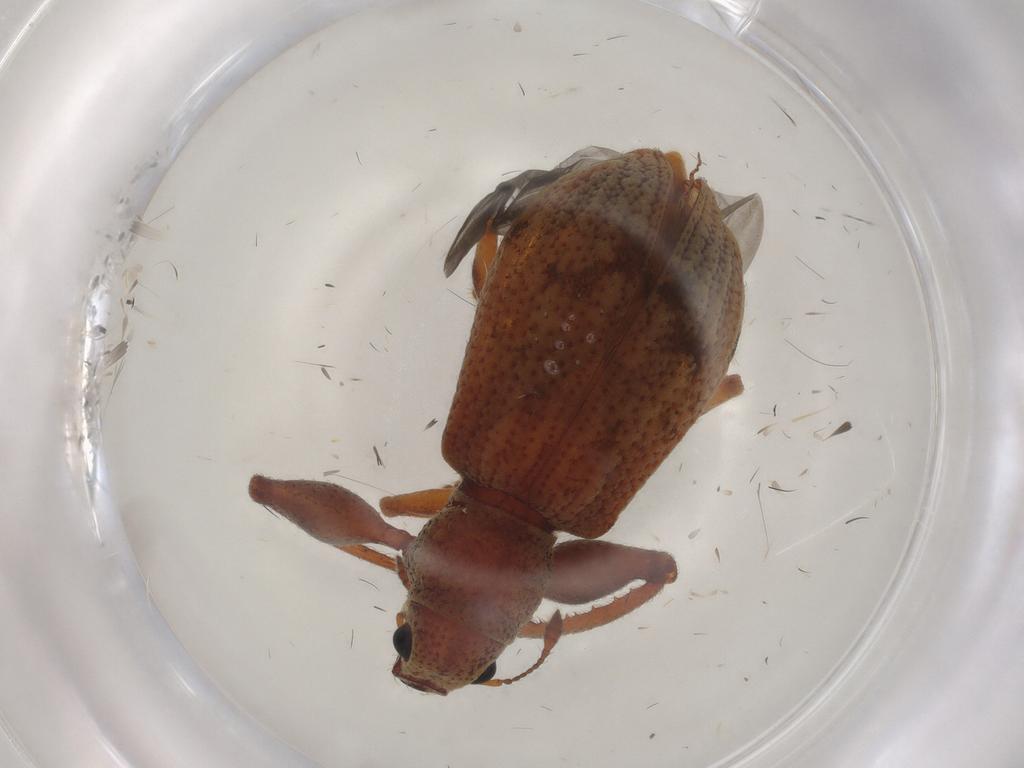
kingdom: Animalia
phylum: Arthropoda
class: Insecta
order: Coleoptera
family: Curculionidae
